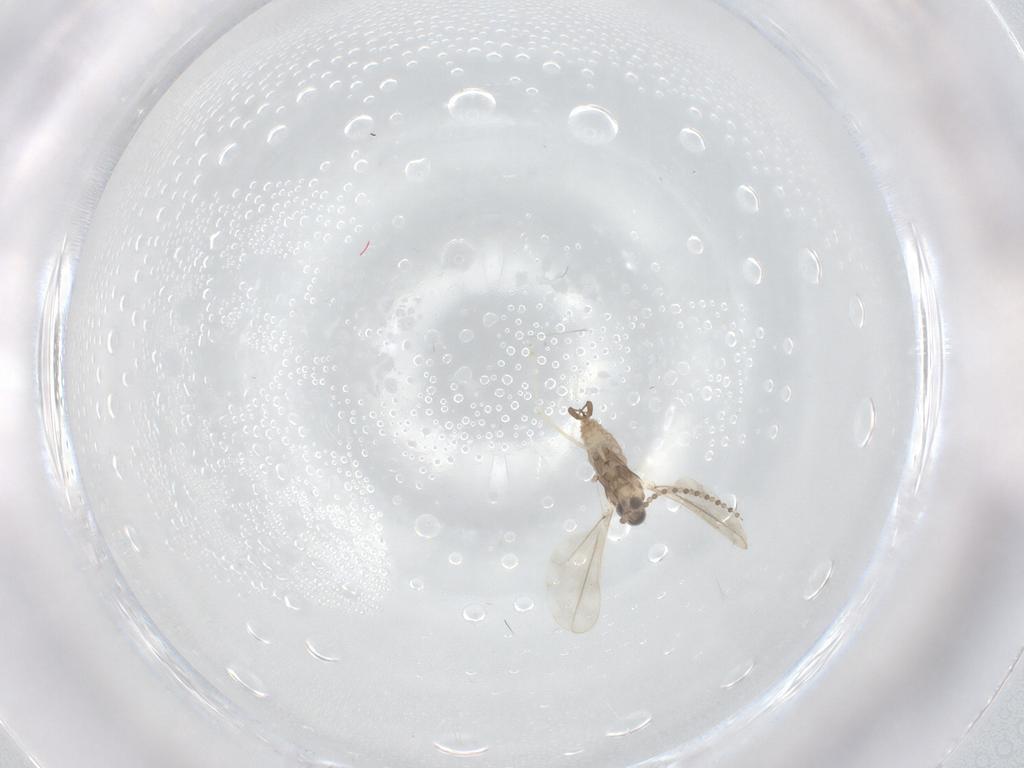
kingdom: Animalia
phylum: Arthropoda
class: Insecta
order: Diptera
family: Cecidomyiidae
